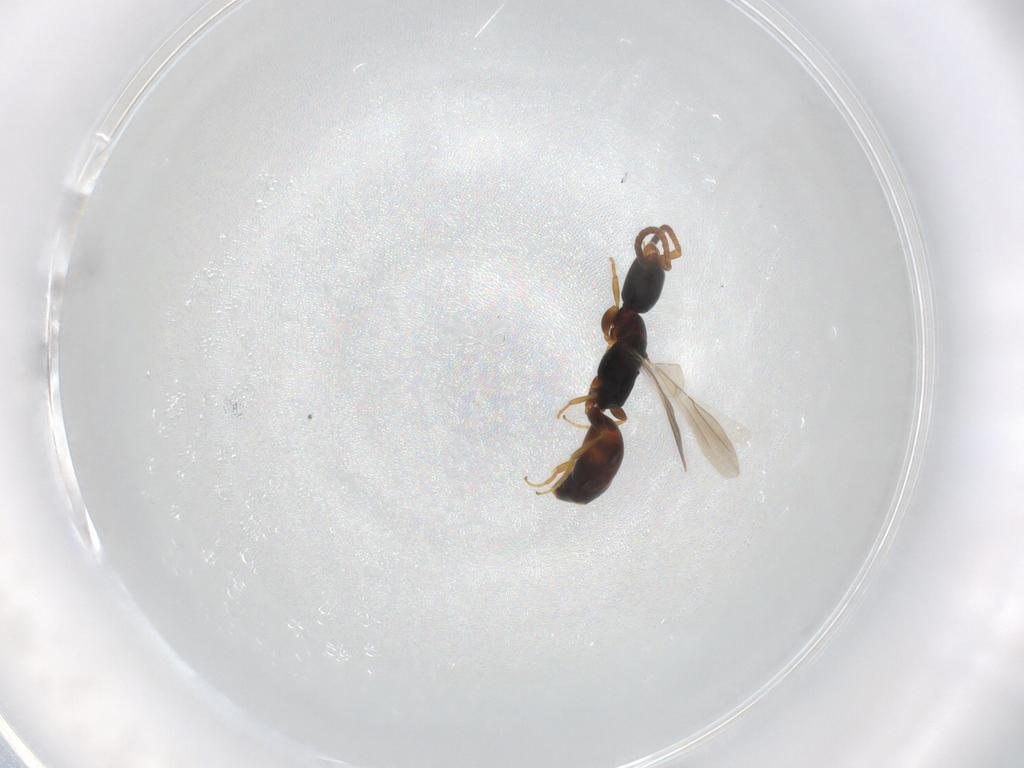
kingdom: Animalia
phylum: Arthropoda
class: Insecta
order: Hymenoptera
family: Bethylidae
